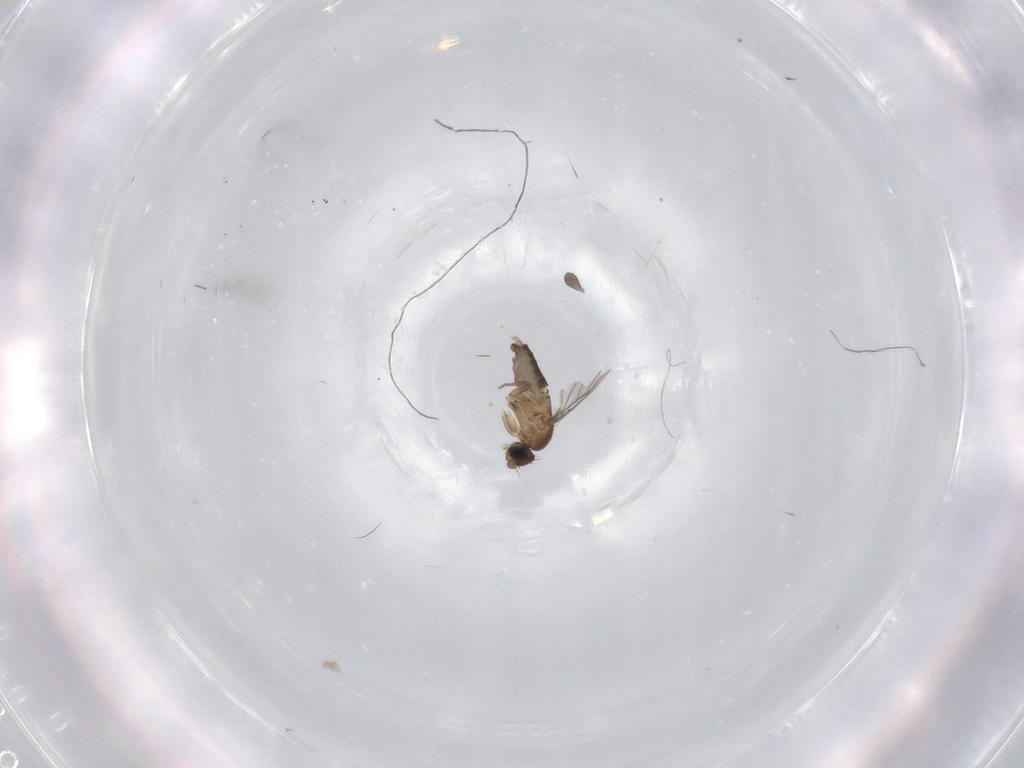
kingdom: Animalia
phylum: Arthropoda
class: Insecta
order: Diptera
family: Phoridae
